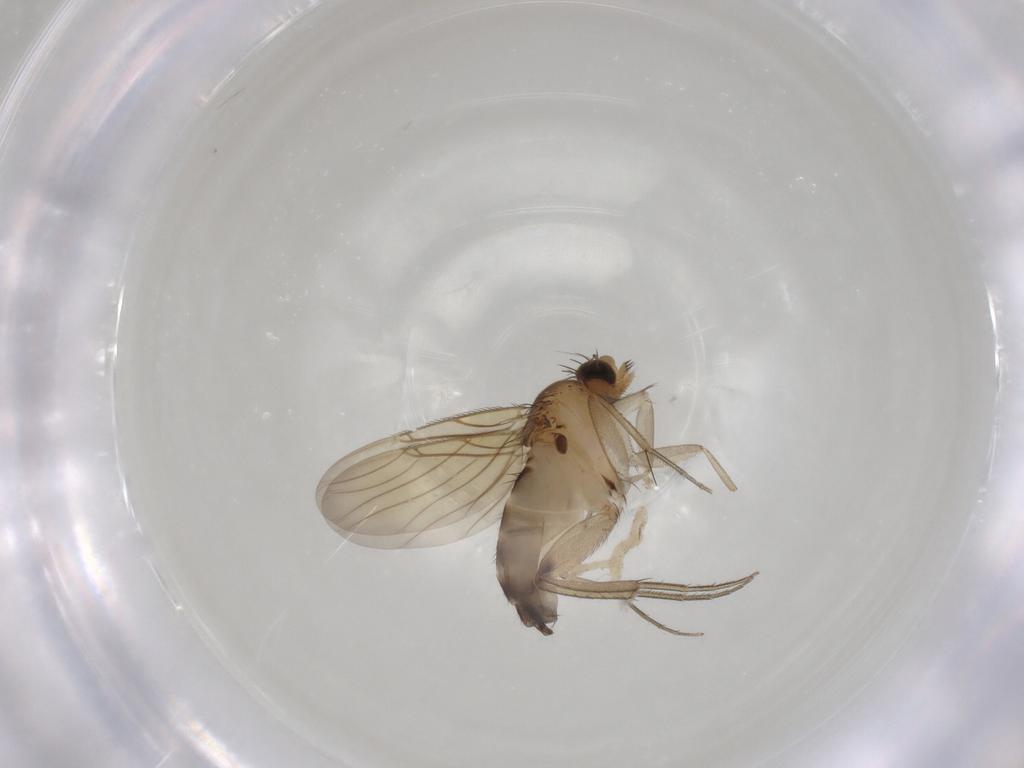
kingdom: Animalia
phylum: Arthropoda
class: Insecta
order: Diptera
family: Phoridae
